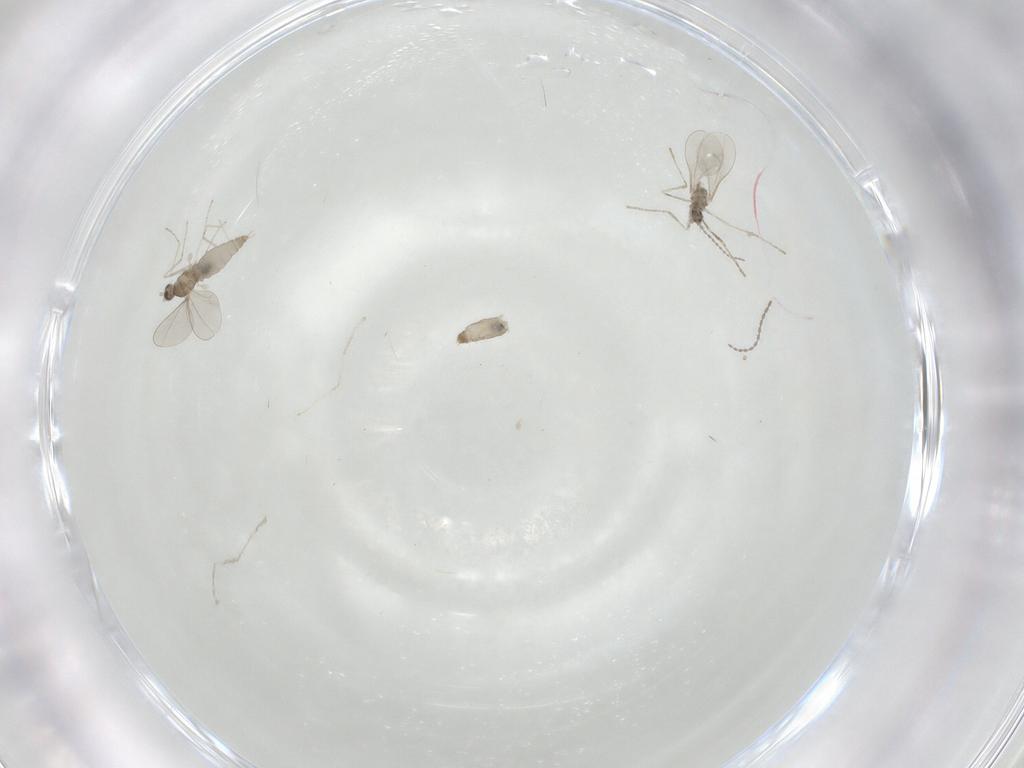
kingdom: Animalia
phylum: Arthropoda
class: Insecta
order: Diptera
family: Cecidomyiidae
